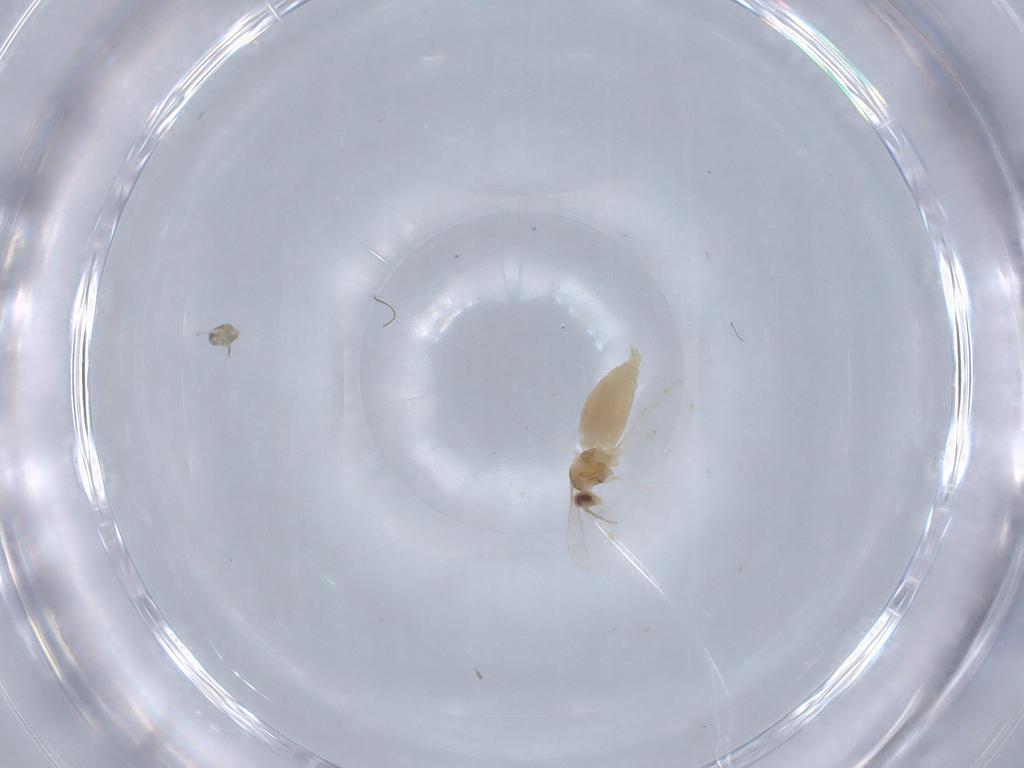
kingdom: Animalia
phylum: Arthropoda
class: Insecta
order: Diptera
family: Cecidomyiidae
